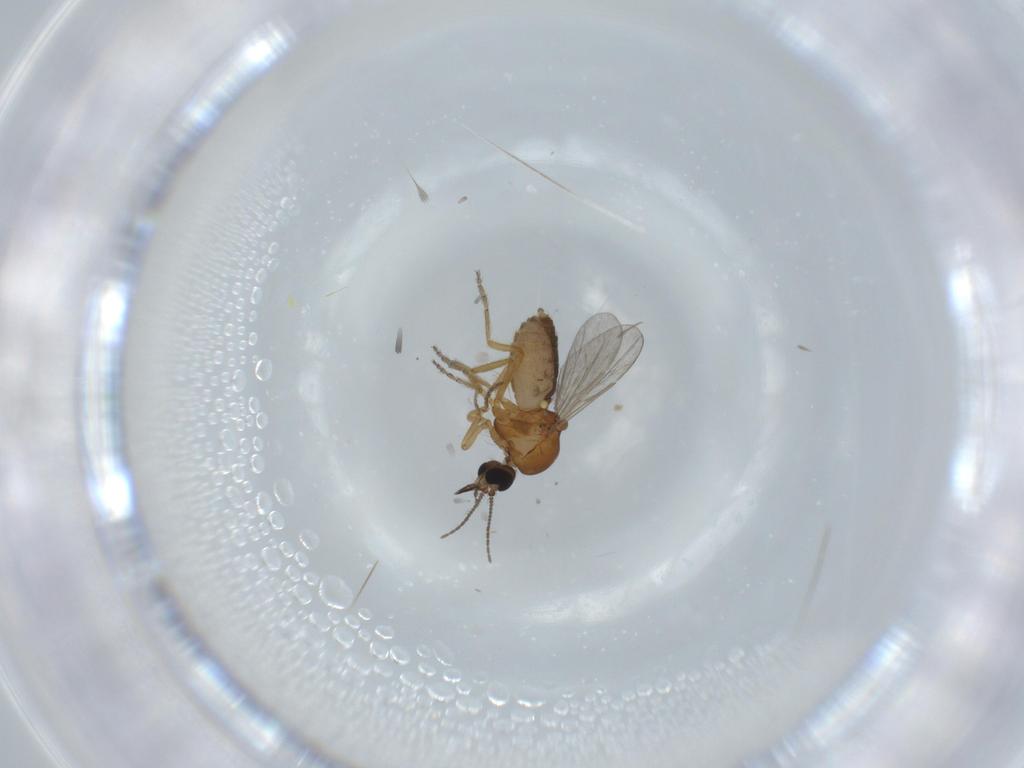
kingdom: Animalia
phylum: Arthropoda
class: Insecta
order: Diptera
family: Ceratopogonidae
